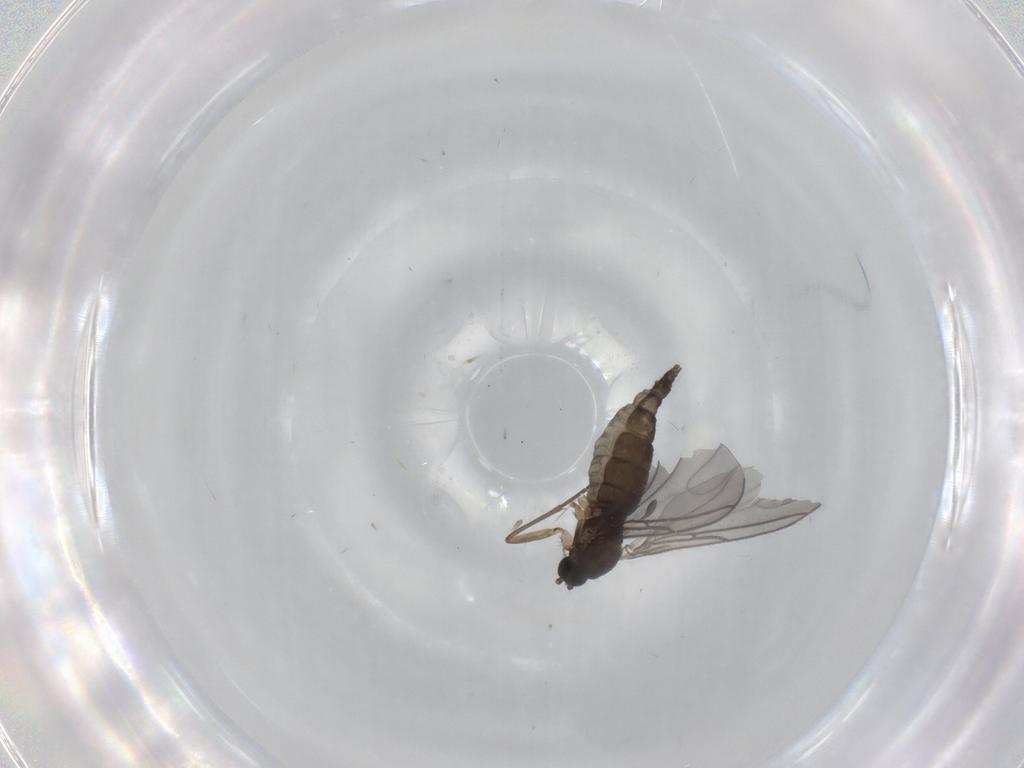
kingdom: Animalia
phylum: Arthropoda
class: Insecta
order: Diptera
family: Sciaridae
